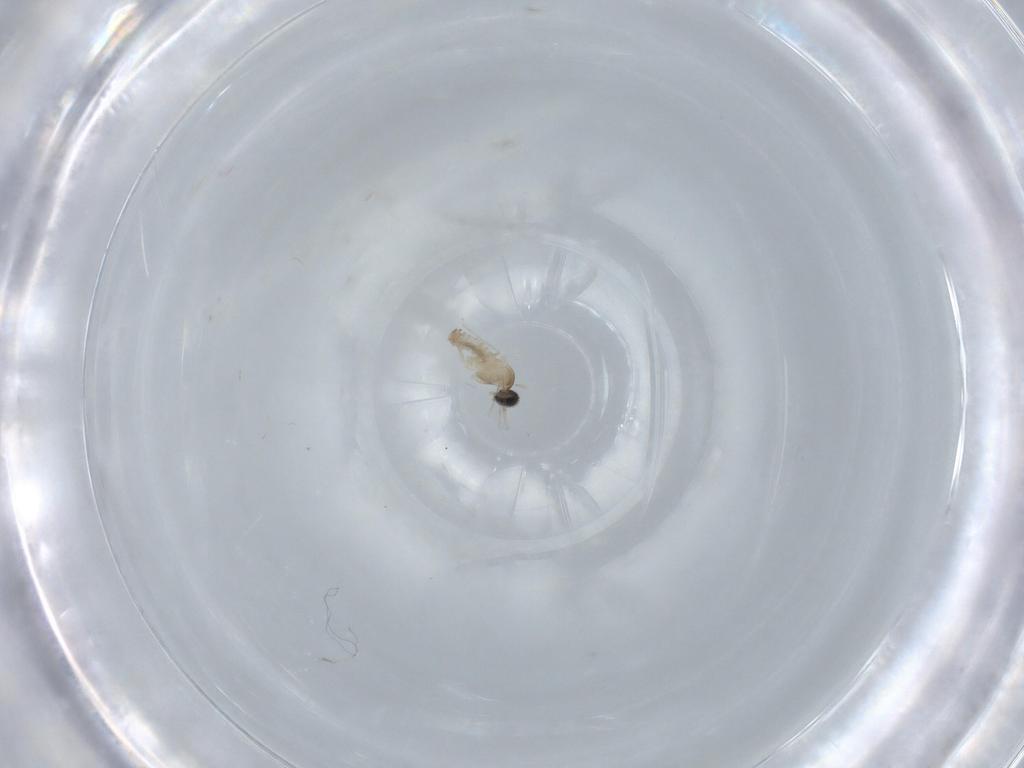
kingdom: Animalia
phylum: Arthropoda
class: Insecta
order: Diptera
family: Cecidomyiidae
